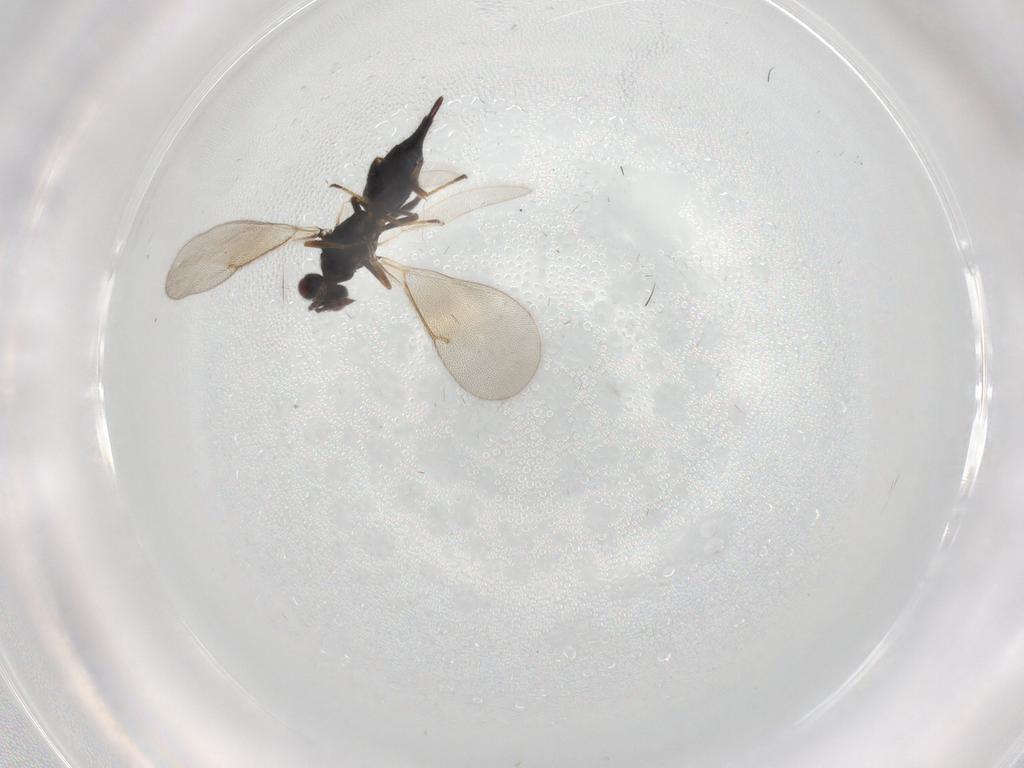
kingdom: Animalia
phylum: Arthropoda
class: Insecta
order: Hymenoptera
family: Eulophidae
